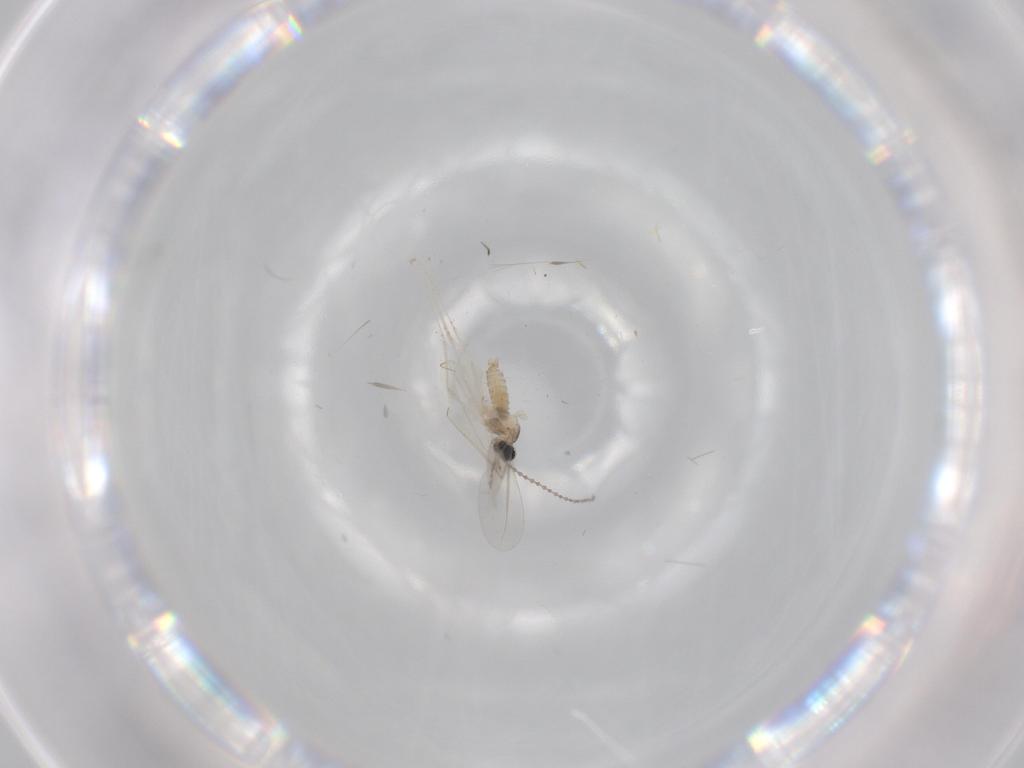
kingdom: Animalia
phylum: Arthropoda
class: Insecta
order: Diptera
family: Cecidomyiidae
